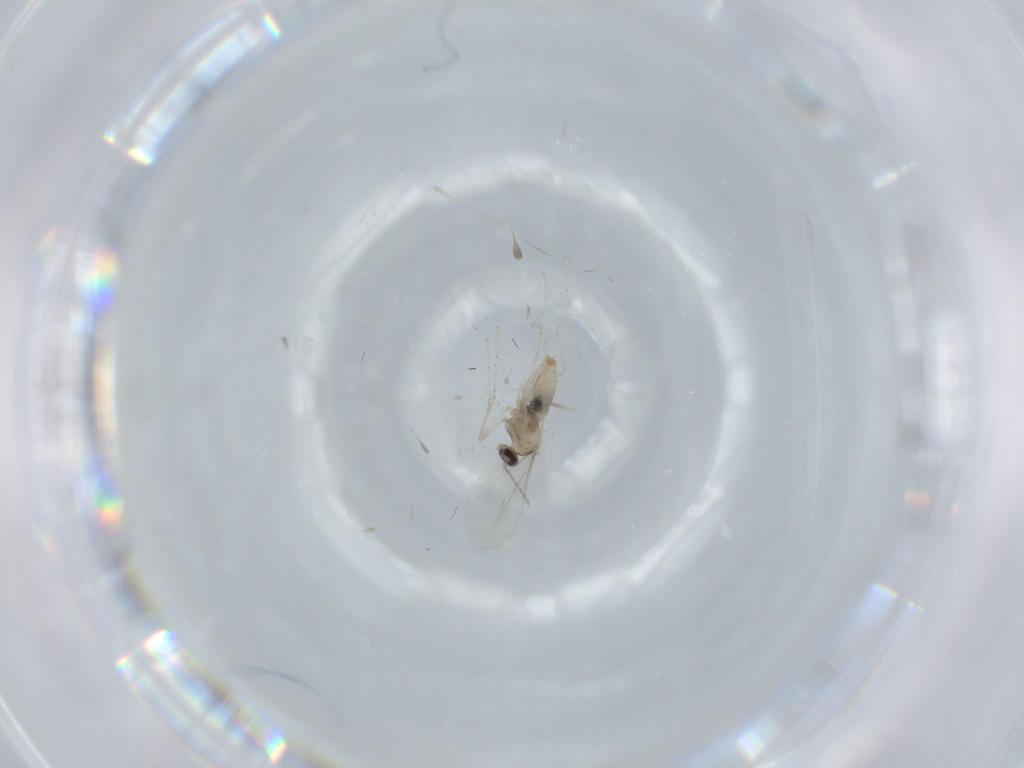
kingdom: Animalia
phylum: Arthropoda
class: Insecta
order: Diptera
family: Cecidomyiidae
